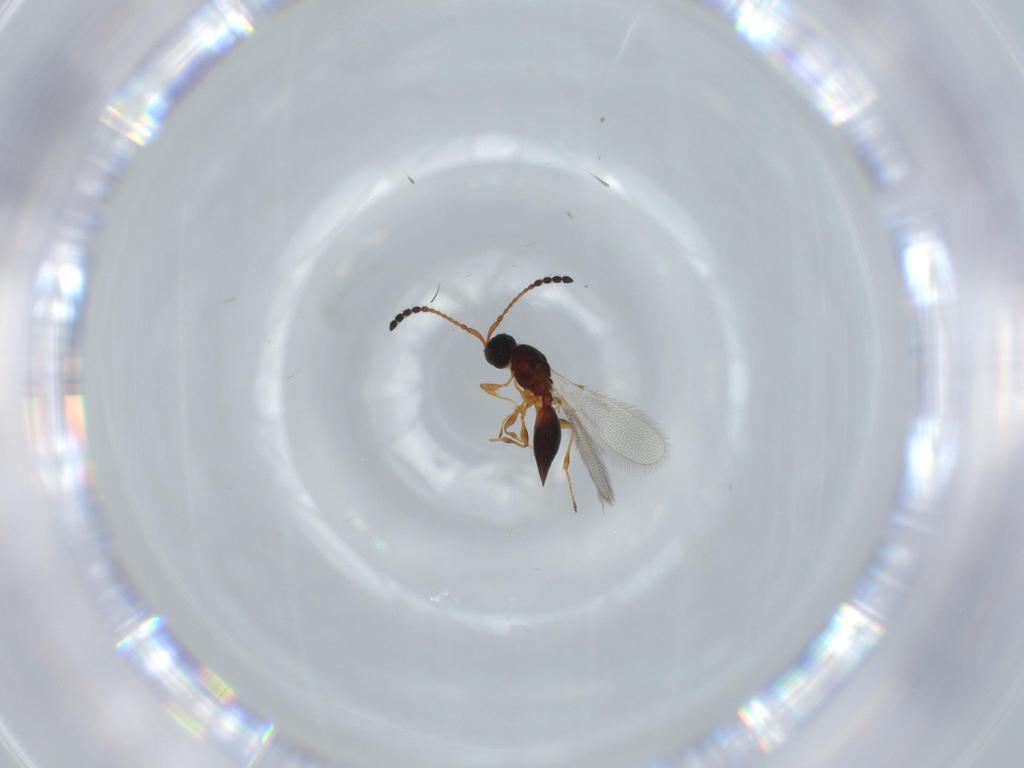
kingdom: Animalia
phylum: Arthropoda
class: Insecta
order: Hymenoptera
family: Diapriidae
